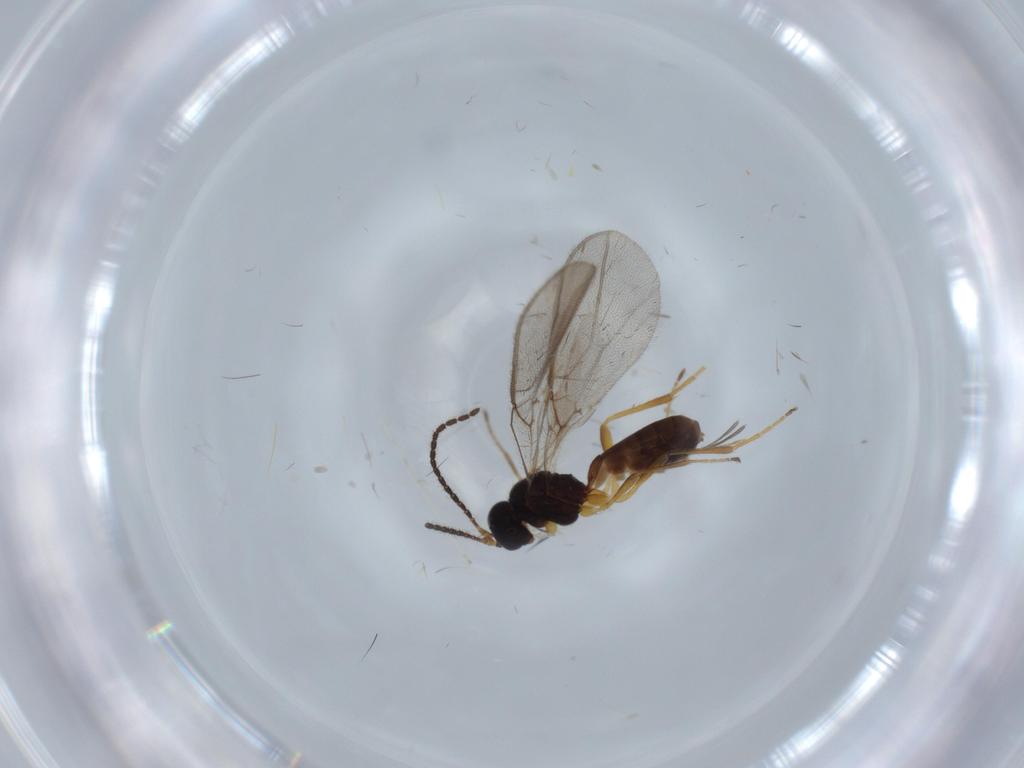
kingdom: Animalia
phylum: Arthropoda
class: Insecta
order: Hymenoptera
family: Braconidae
